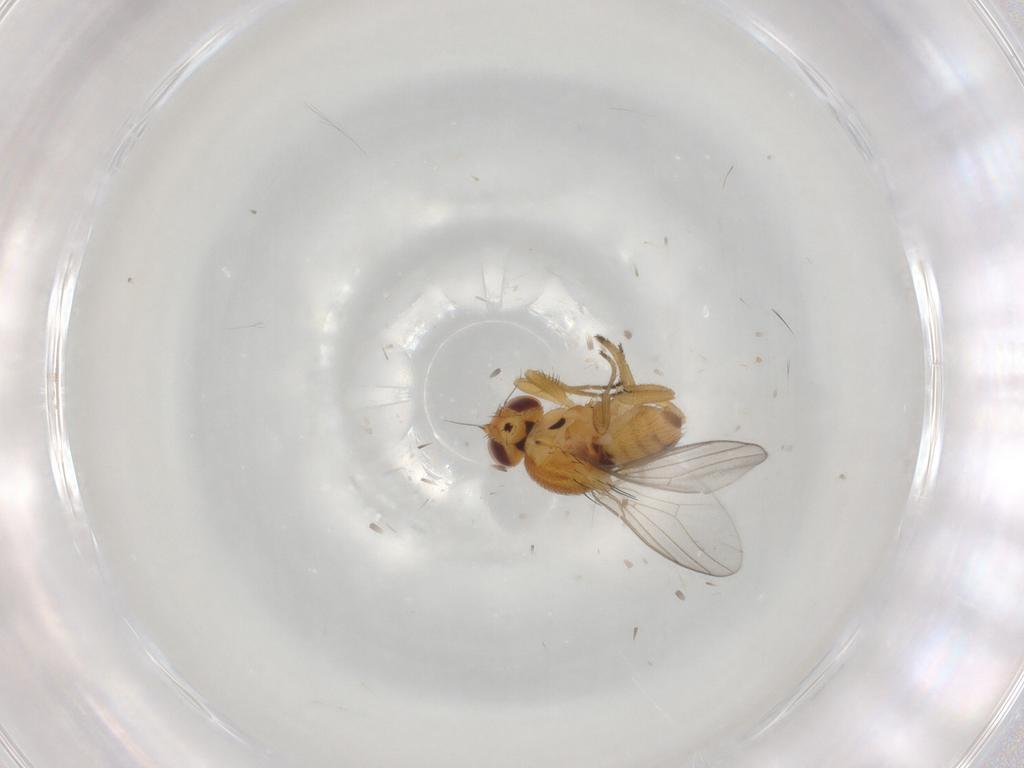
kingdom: Animalia
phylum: Arthropoda
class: Insecta
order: Diptera
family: Chloropidae
